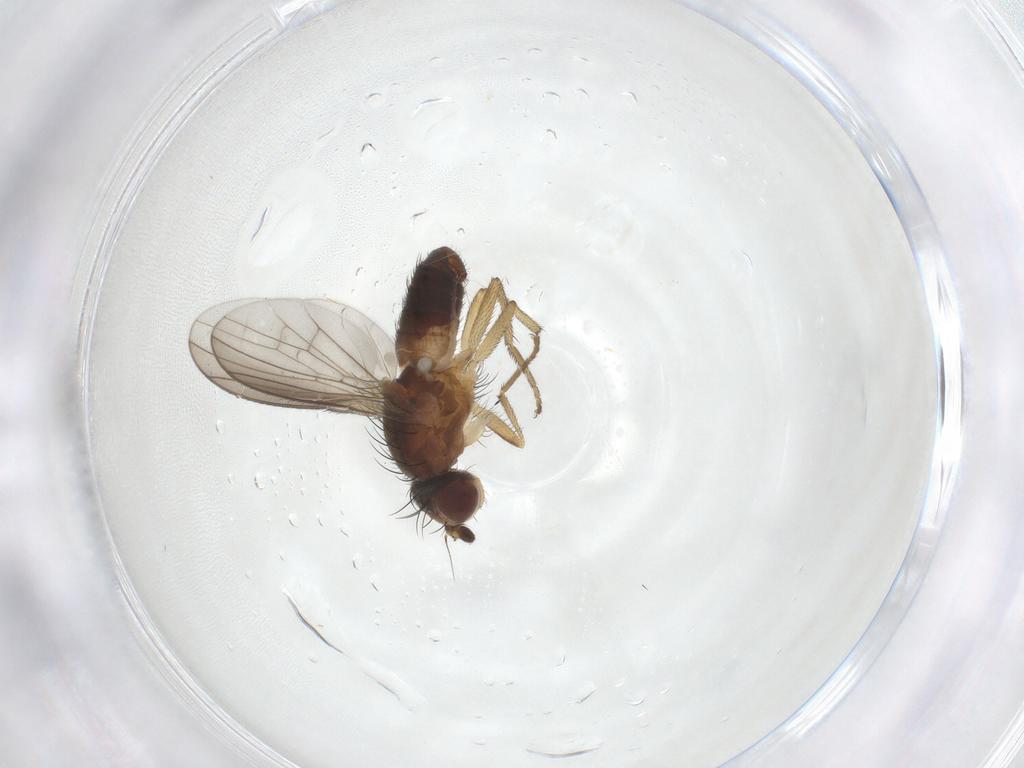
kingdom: Animalia
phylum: Arthropoda
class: Insecta
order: Diptera
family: Heleomyzidae
